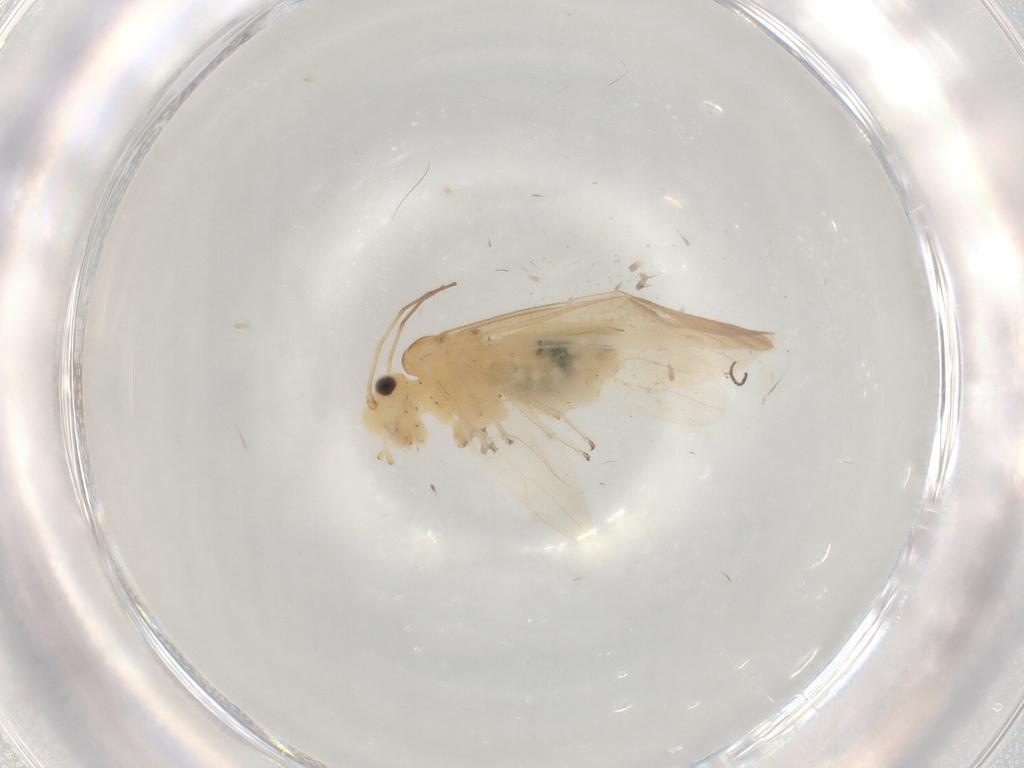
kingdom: Animalia
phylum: Arthropoda
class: Insecta
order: Psocodea
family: Caeciliusidae
